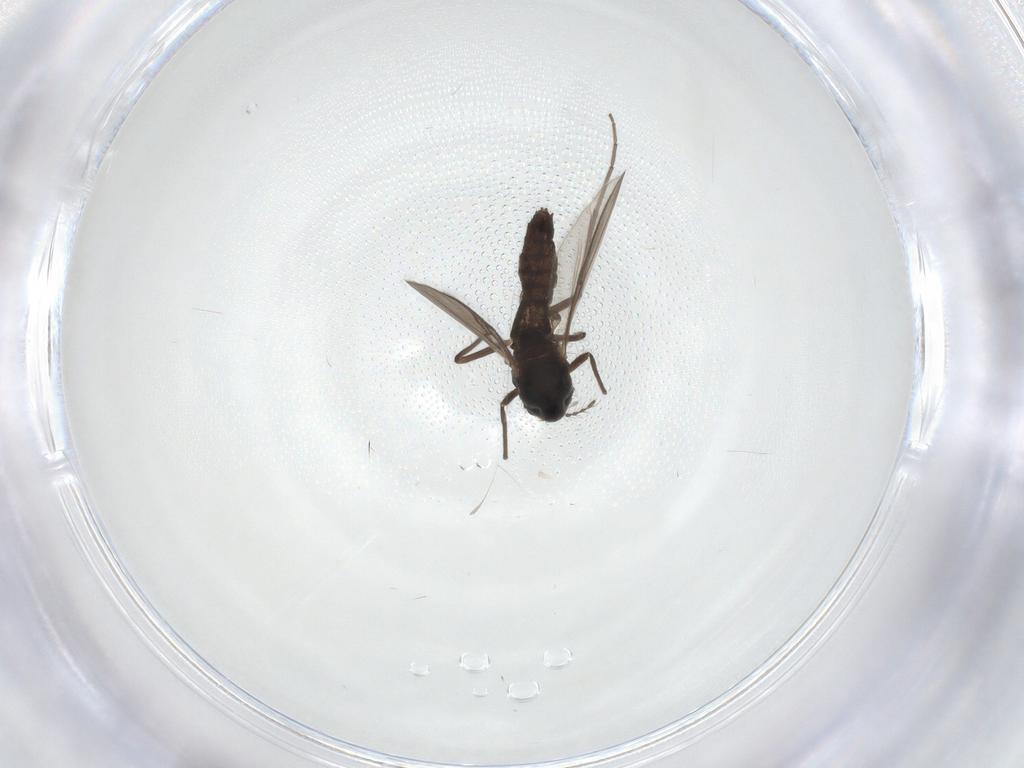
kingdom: Animalia
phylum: Arthropoda
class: Insecta
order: Diptera
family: Chironomidae
